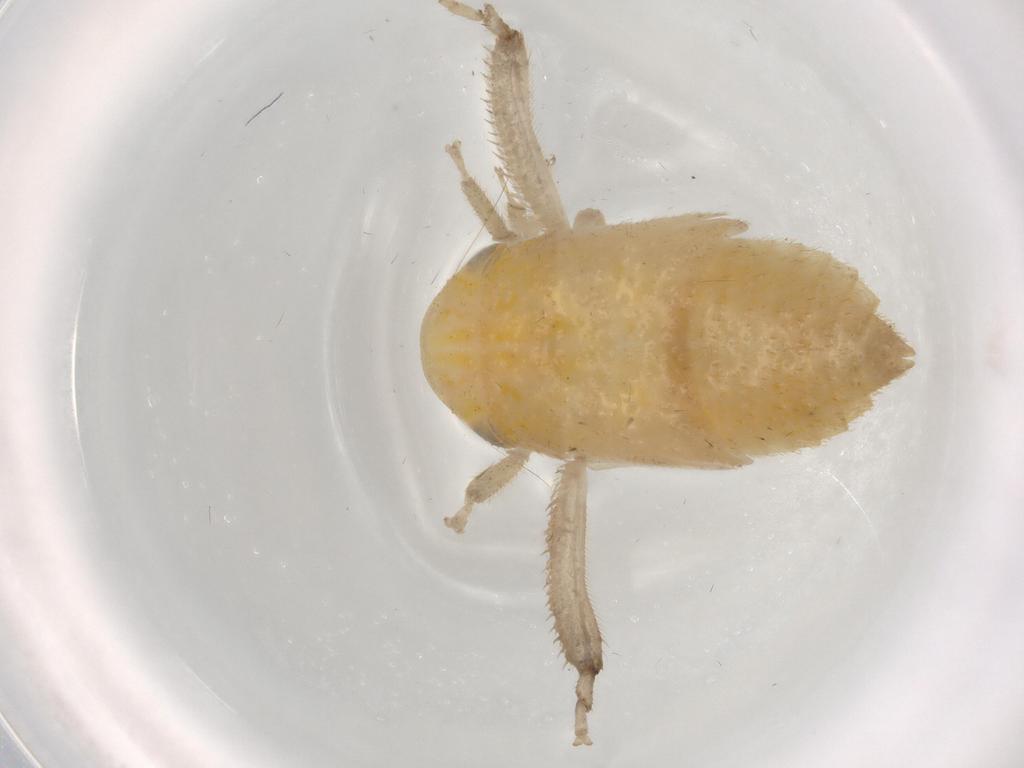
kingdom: Animalia
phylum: Arthropoda
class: Insecta
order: Hemiptera
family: Cicadellidae
